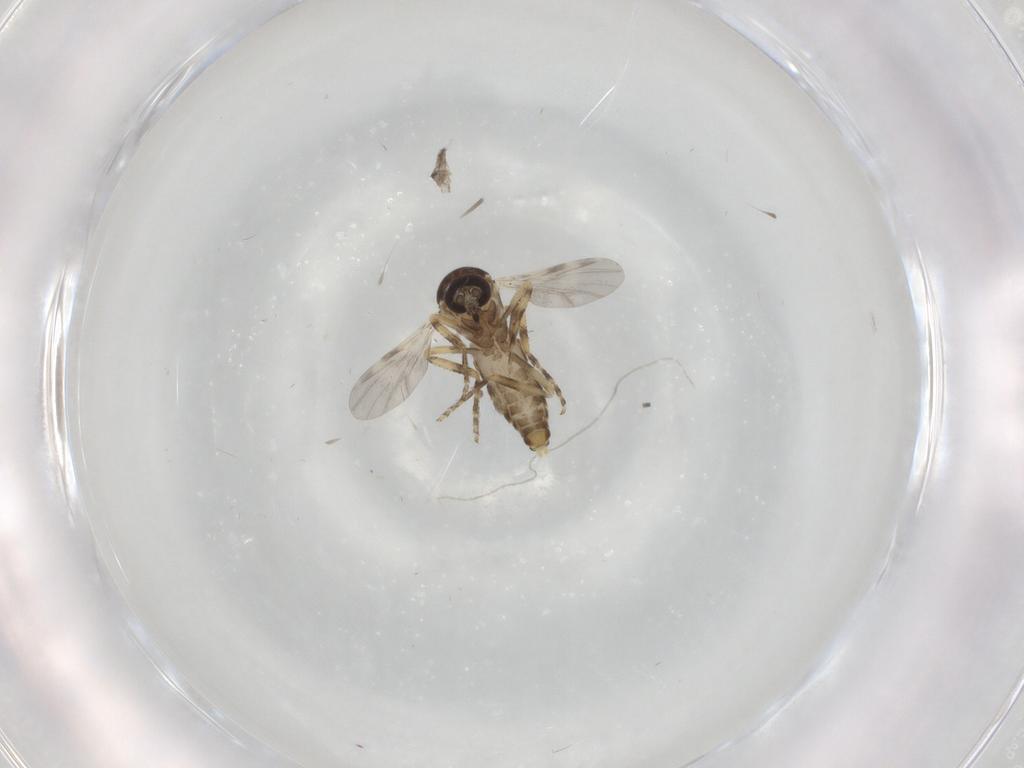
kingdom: Animalia
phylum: Arthropoda
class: Insecta
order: Diptera
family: Ceratopogonidae
